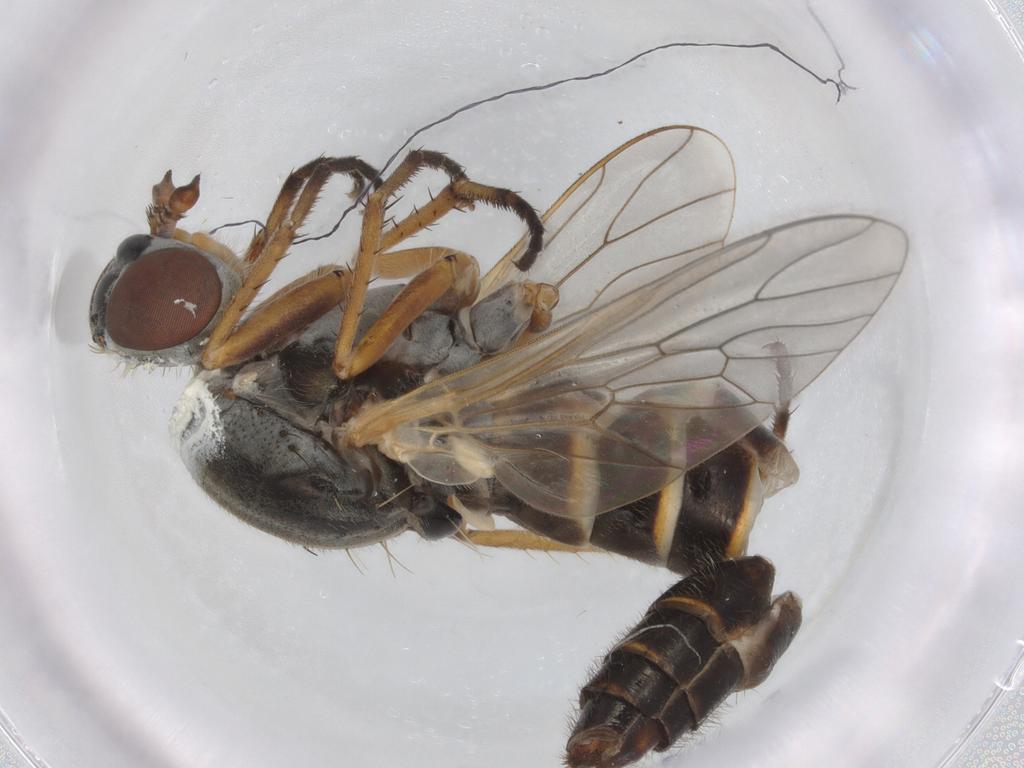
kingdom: Animalia
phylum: Arthropoda
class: Insecta
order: Diptera
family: Therevidae
